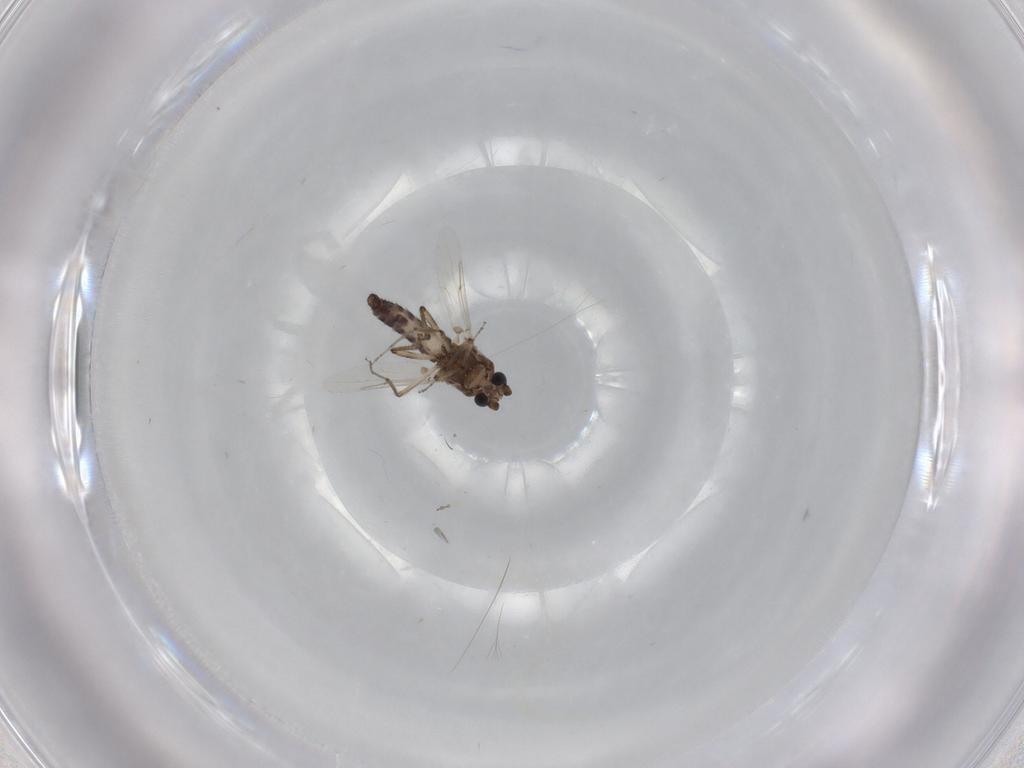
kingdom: Animalia
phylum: Arthropoda
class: Insecta
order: Diptera
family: Ceratopogonidae
